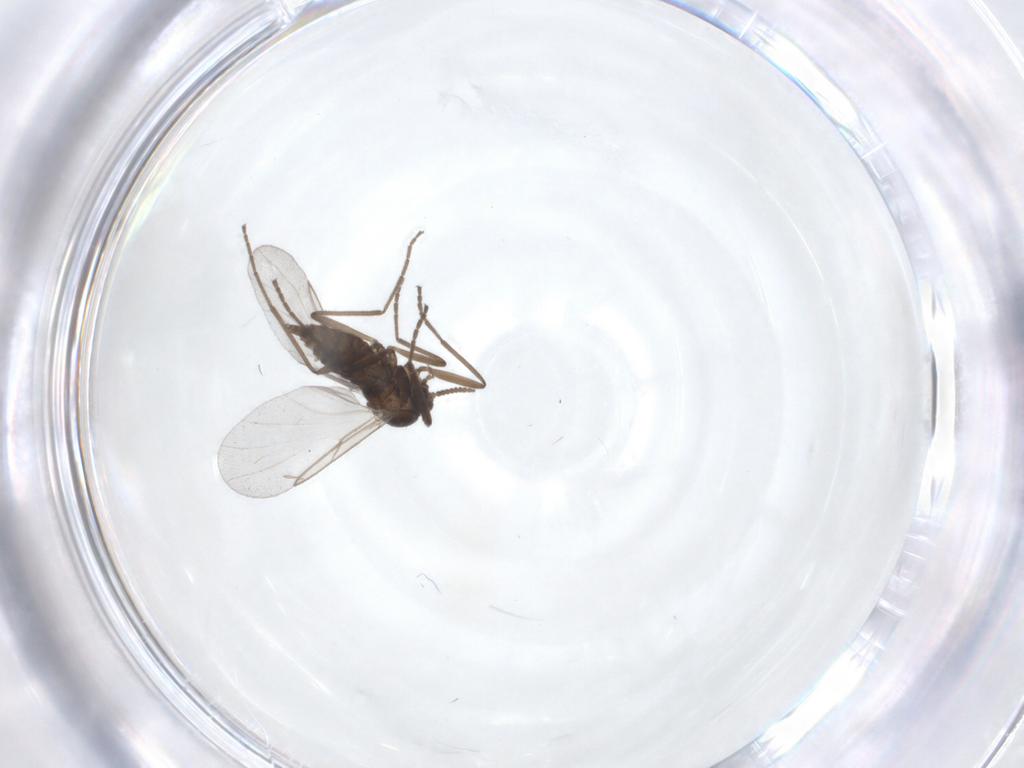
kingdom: Animalia
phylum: Arthropoda
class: Insecta
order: Diptera
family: Cecidomyiidae
